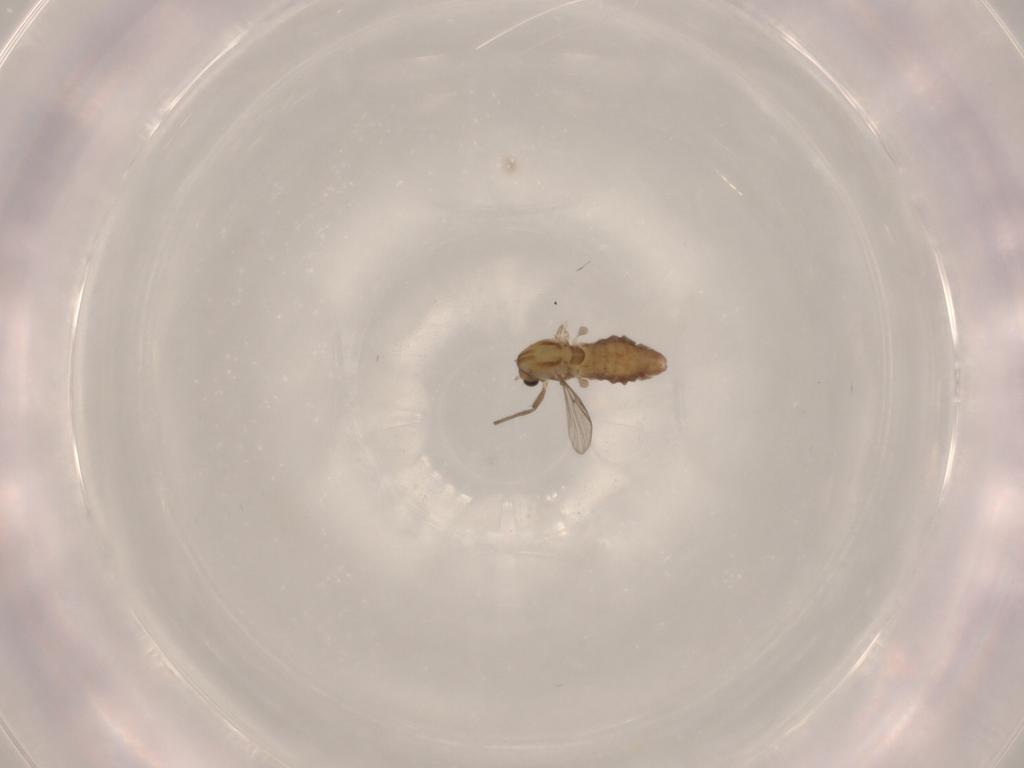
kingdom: Animalia
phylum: Arthropoda
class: Insecta
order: Diptera
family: Chironomidae
